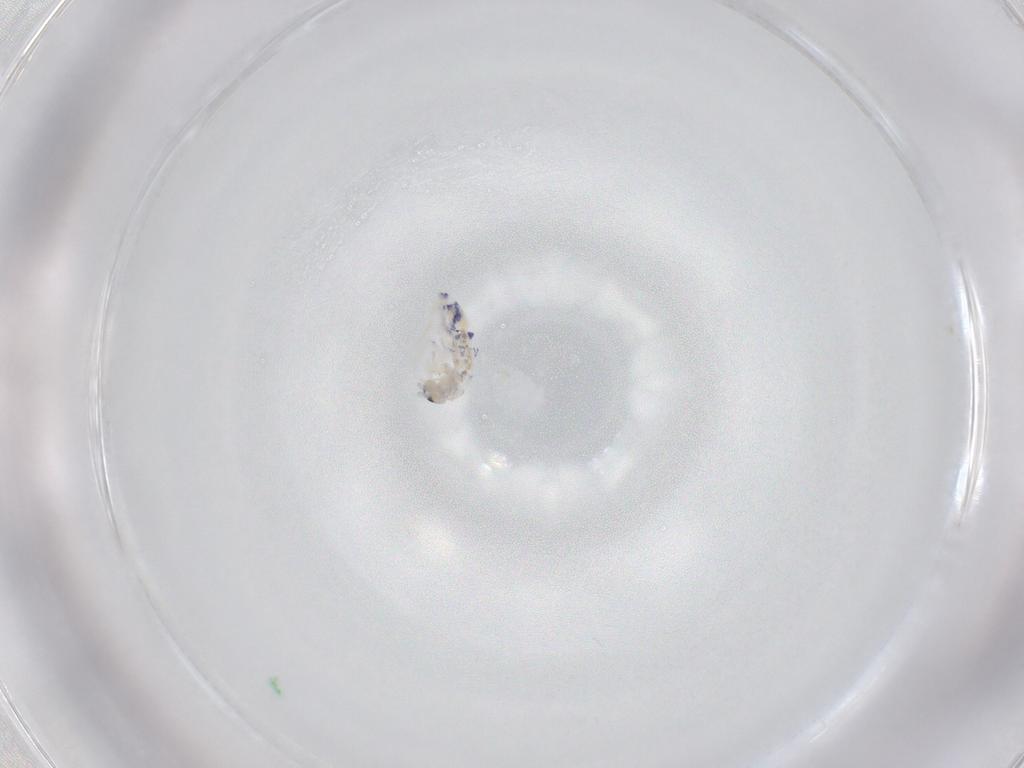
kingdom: Animalia
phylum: Arthropoda
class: Collembola
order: Entomobryomorpha
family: Entomobryidae
